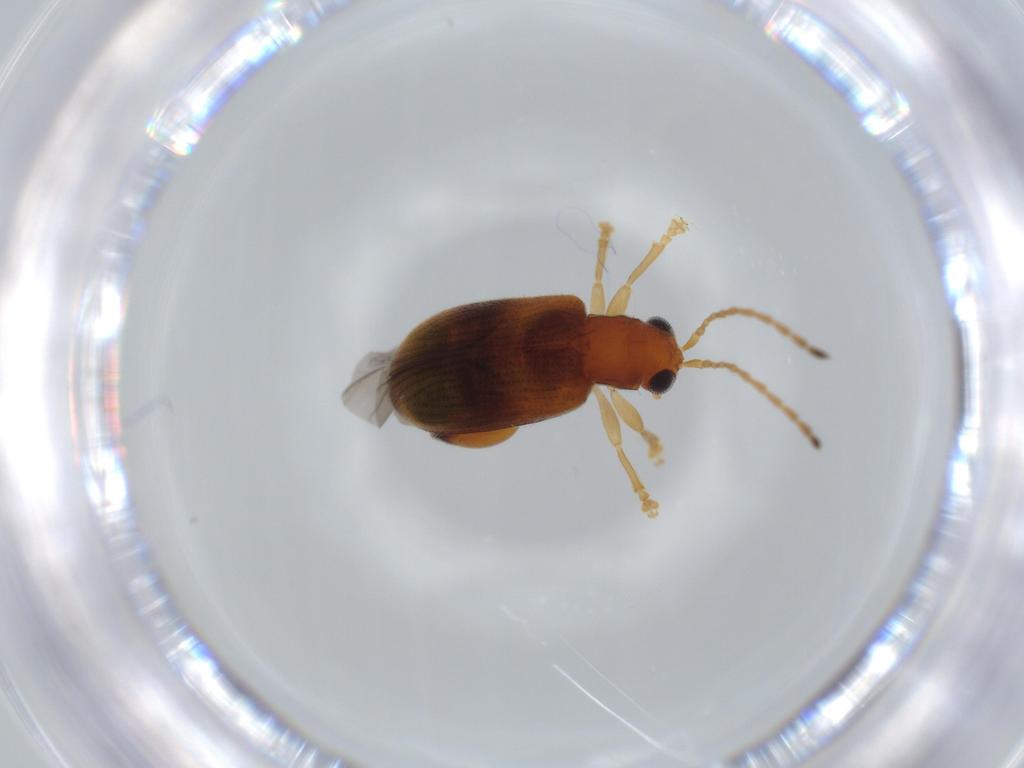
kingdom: Animalia
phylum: Arthropoda
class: Insecta
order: Coleoptera
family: Chrysomelidae
